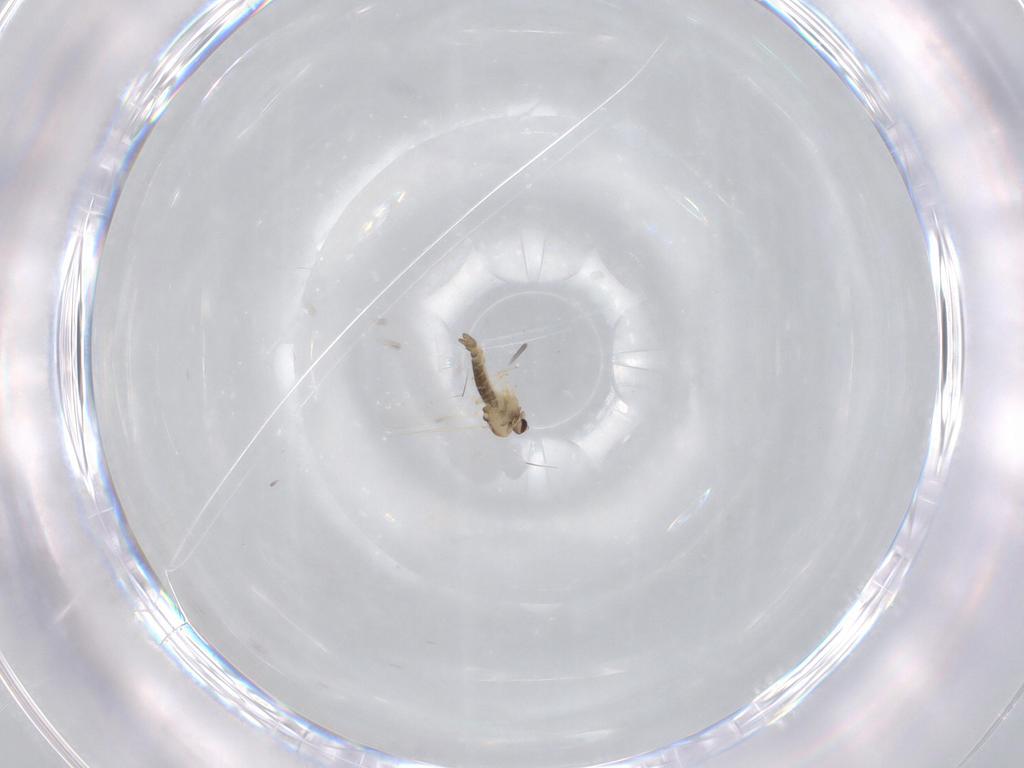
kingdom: Animalia
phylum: Arthropoda
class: Insecta
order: Diptera
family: Chironomidae
